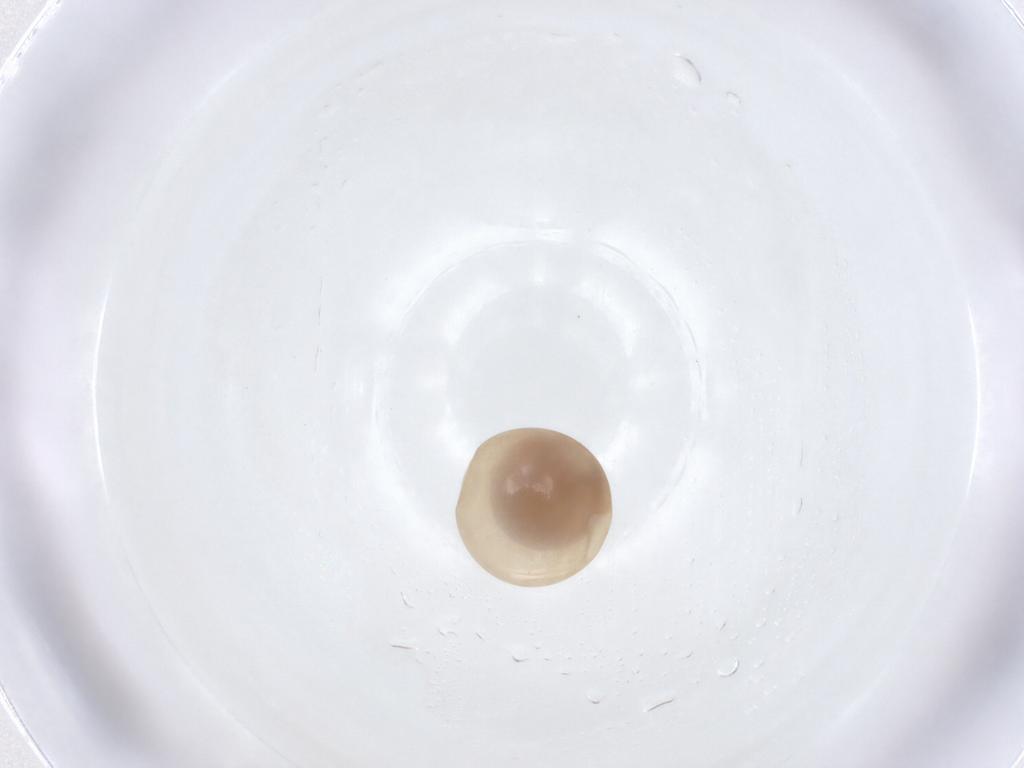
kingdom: Animalia
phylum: Arthropoda
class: Insecta
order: Hymenoptera
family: Scelionidae
